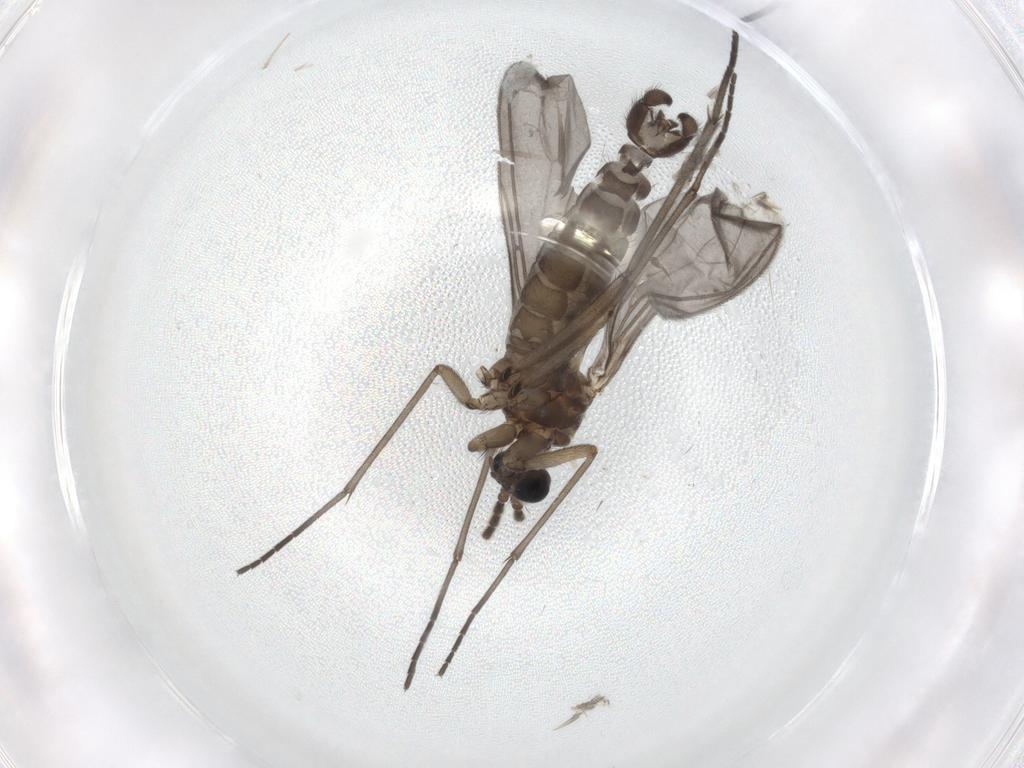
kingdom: Animalia
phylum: Arthropoda
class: Insecta
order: Diptera
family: Sciaridae
